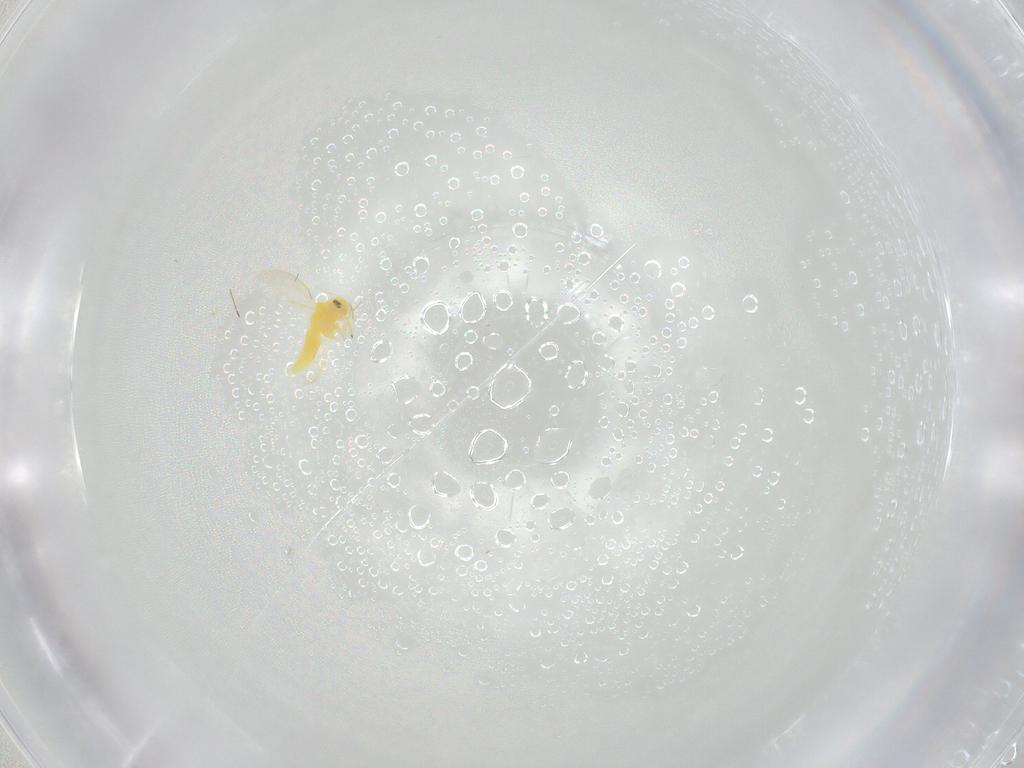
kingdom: Animalia
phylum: Arthropoda
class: Insecta
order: Hemiptera
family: Aleyrodidae
